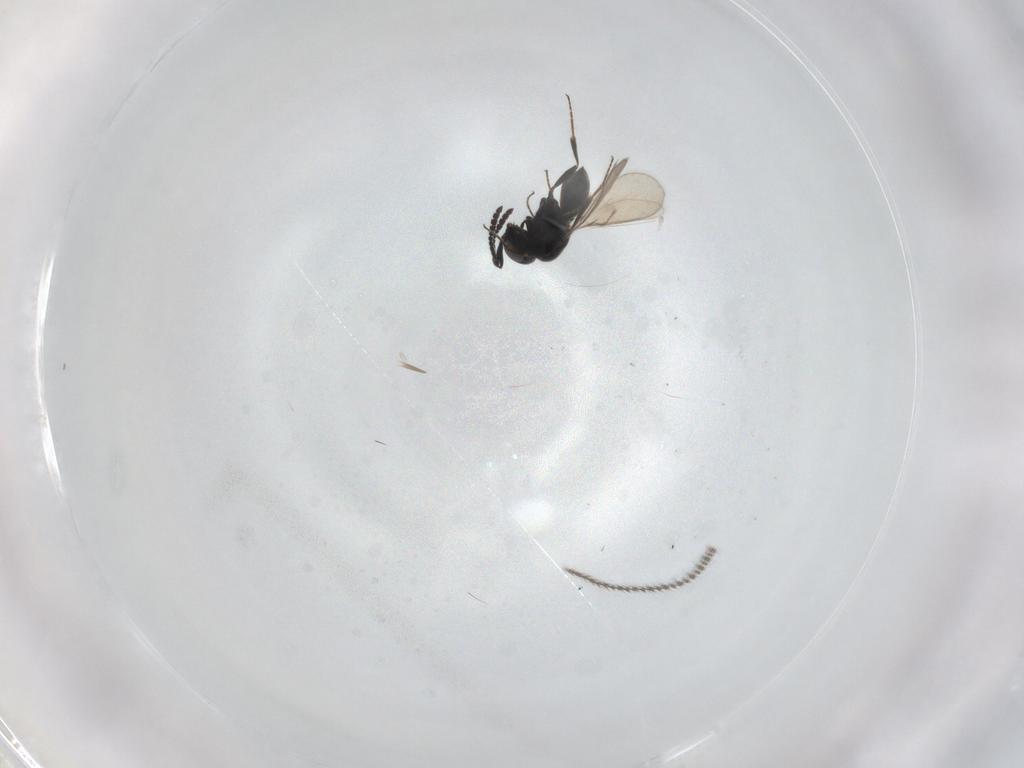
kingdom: Animalia
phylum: Arthropoda
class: Insecta
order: Hymenoptera
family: Scelionidae
